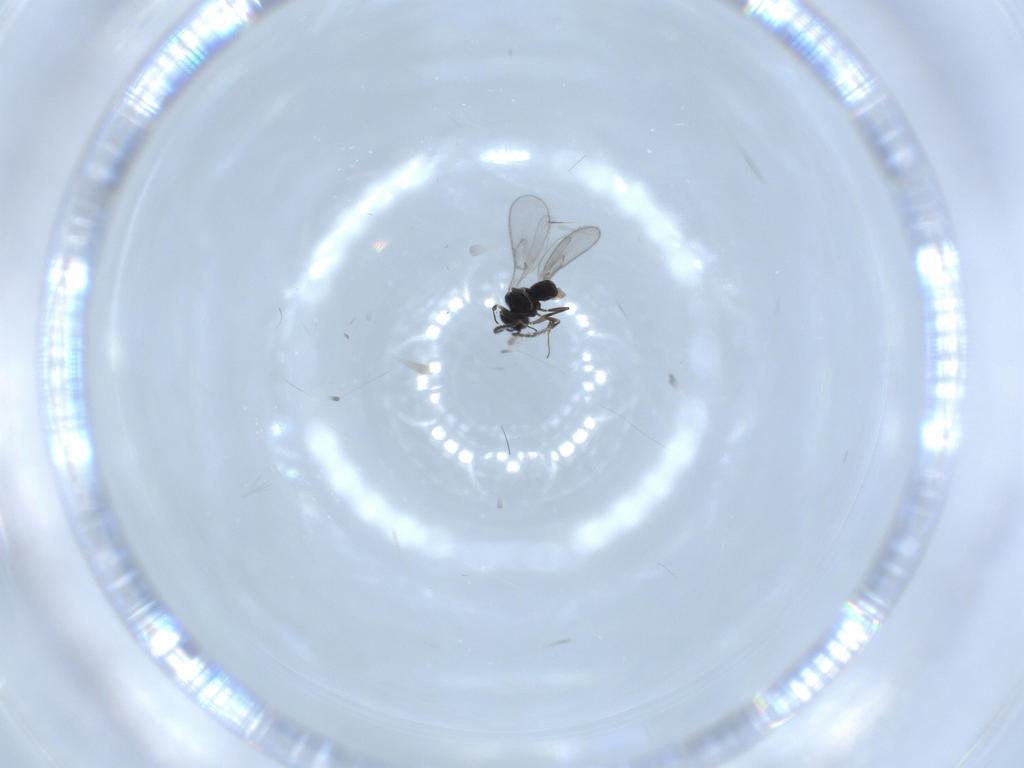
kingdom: Animalia
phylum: Arthropoda
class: Insecta
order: Hymenoptera
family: Scelionidae
